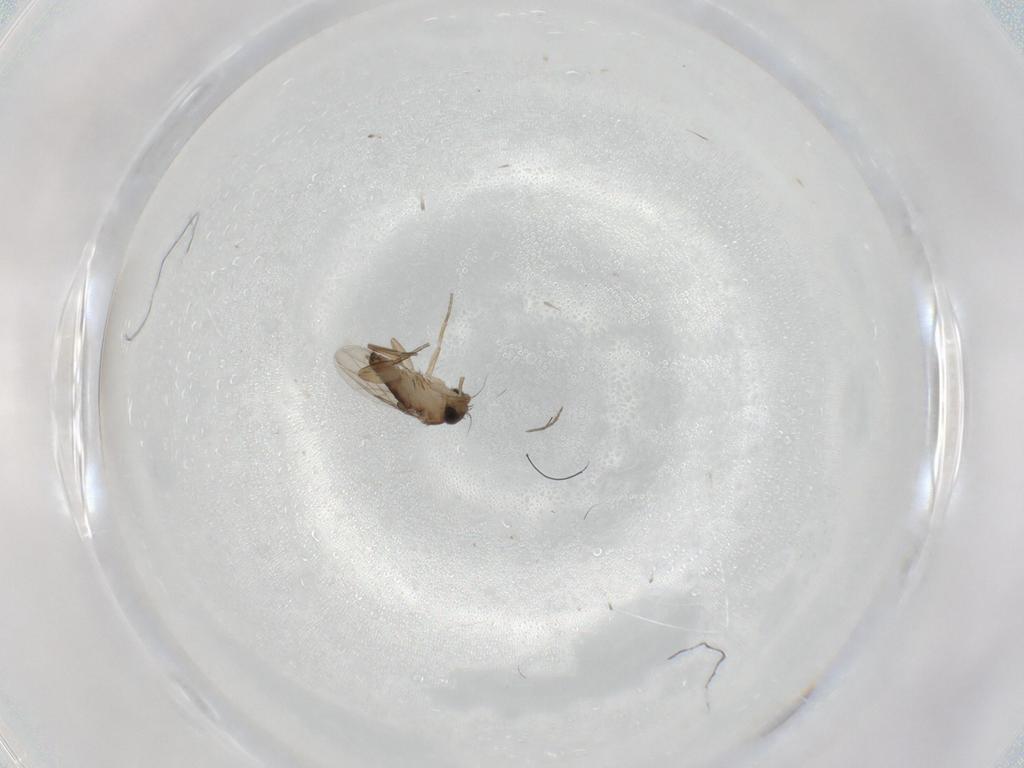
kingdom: Animalia
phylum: Arthropoda
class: Insecta
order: Diptera
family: Phoridae
